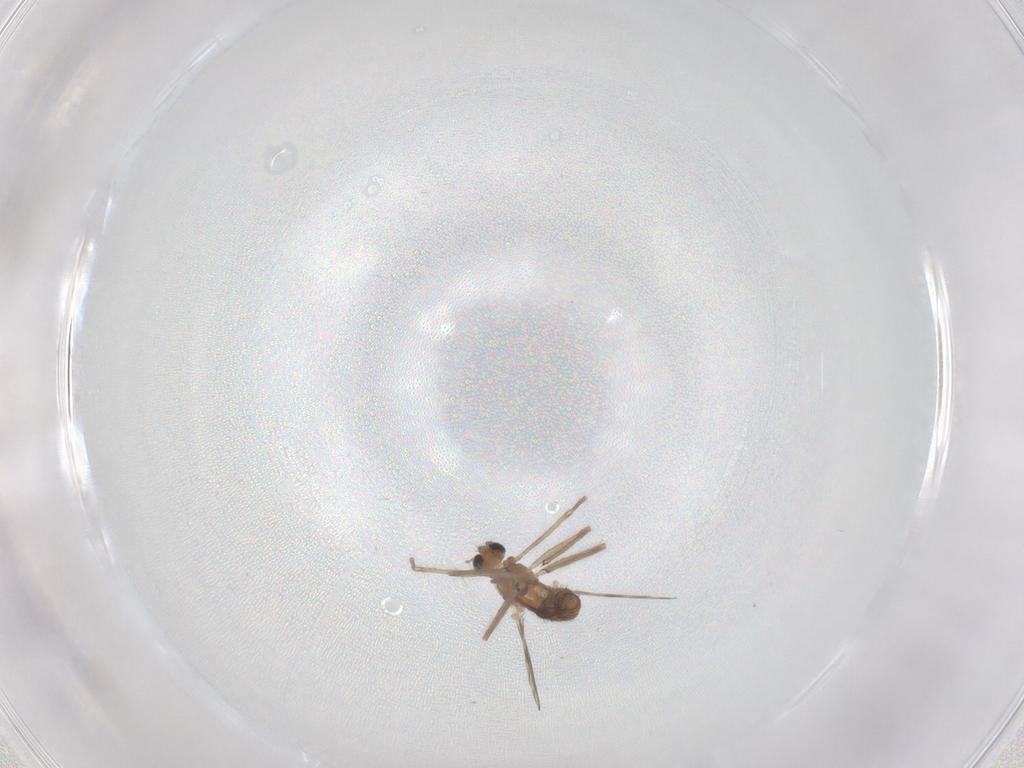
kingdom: Animalia
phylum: Arthropoda
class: Insecta
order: Diptera
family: Chironomidae
